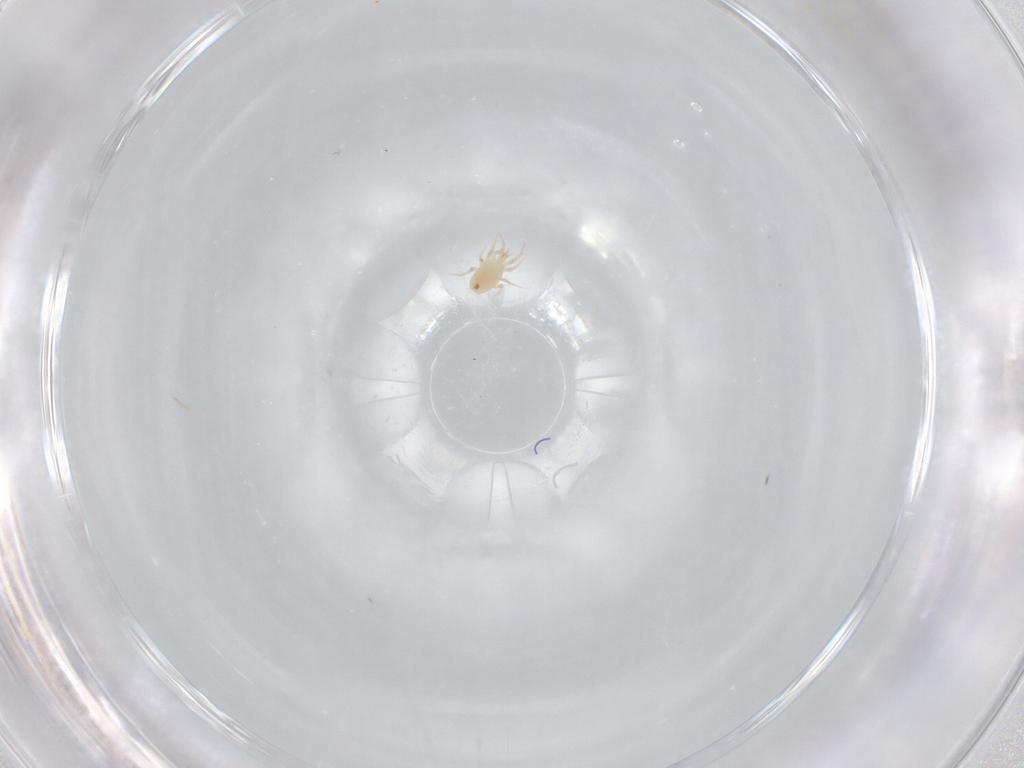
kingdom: Animalia
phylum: Arthropoda
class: Arachnida
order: Mesostigmata
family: Phytoseiidae
